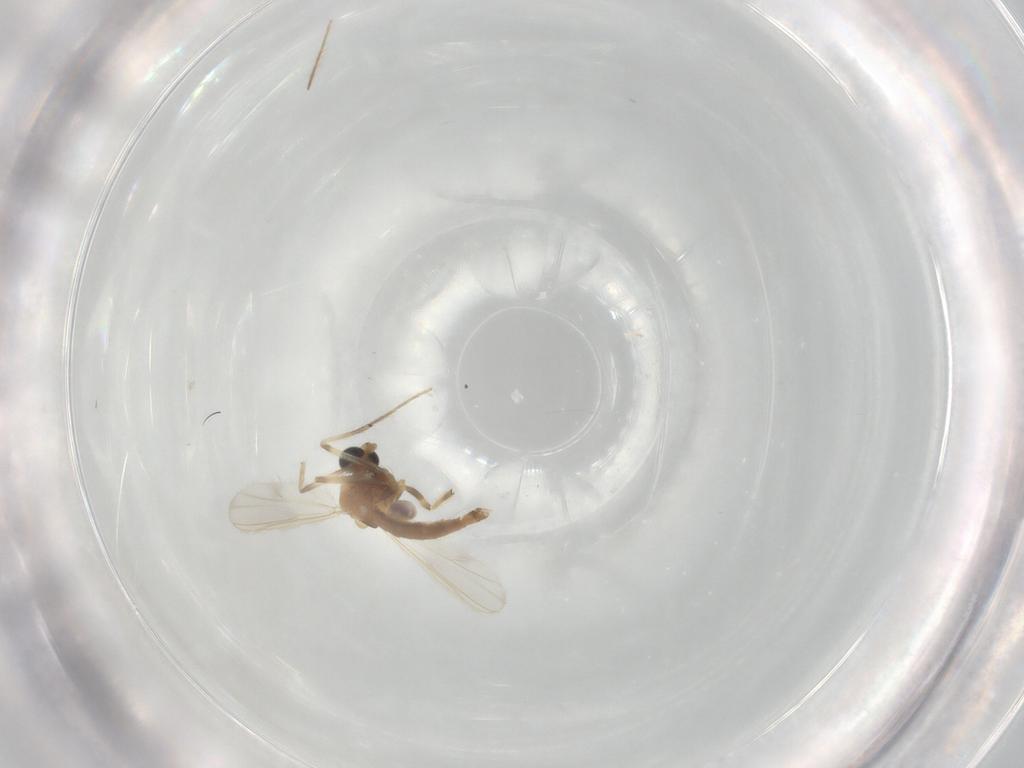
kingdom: Animalia
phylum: Arthropoda
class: Insecta
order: Diptera
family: Chironomidae
